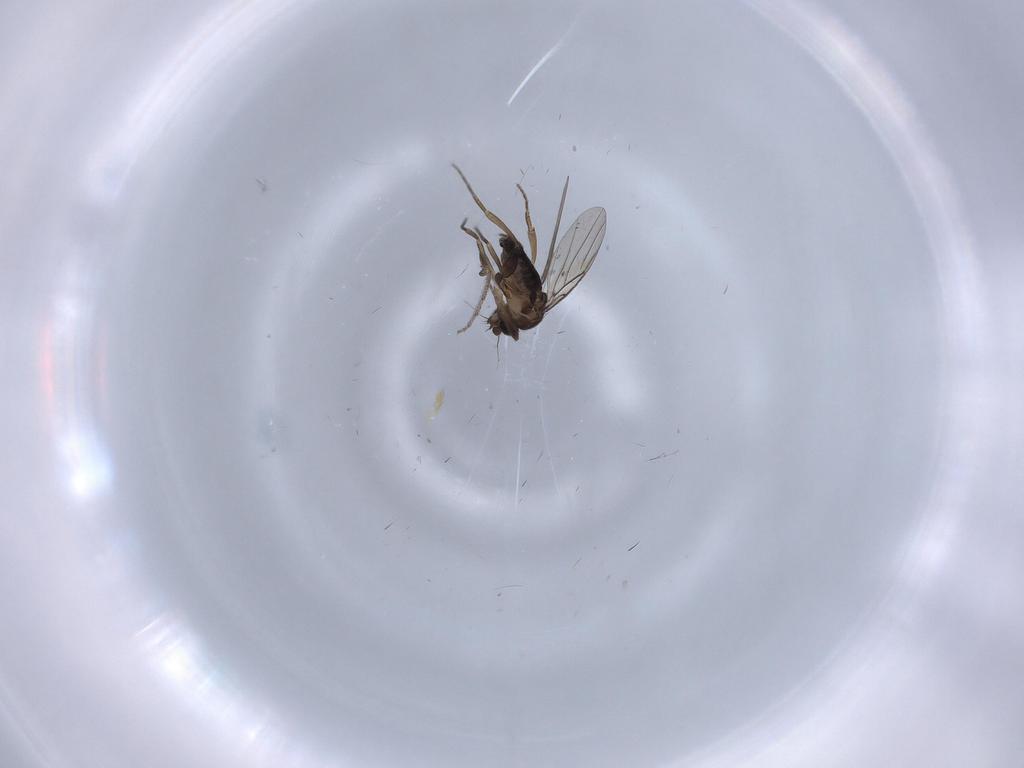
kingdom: Animalia
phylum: Arthropoda
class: Insecta
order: Diptera
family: Phoridae
